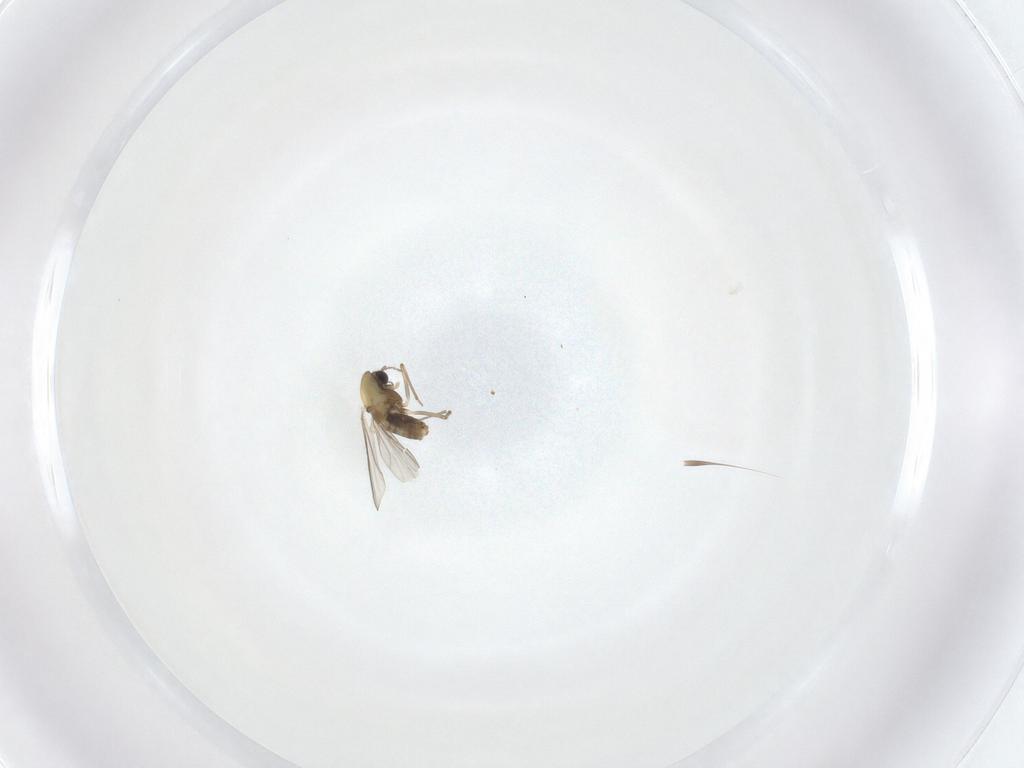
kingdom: Animalia
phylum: Arthropoda
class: Insecta
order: Diptera
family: Chironomidae
